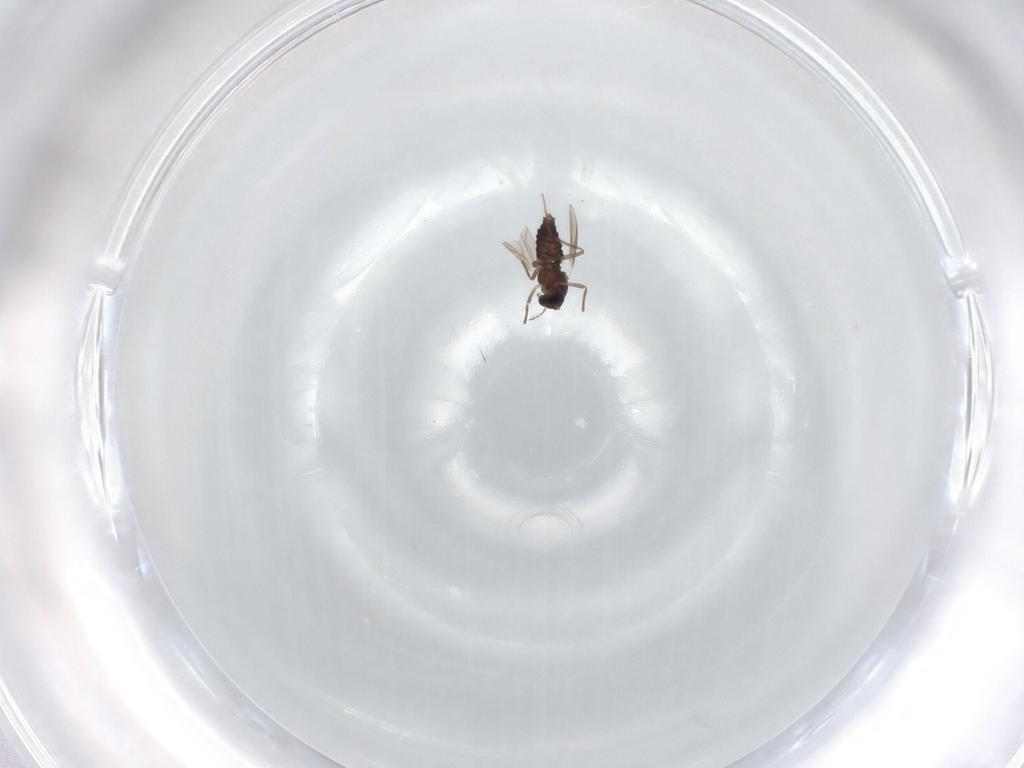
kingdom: Animalia
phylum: Arthropoda
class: Insecta
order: Diptera
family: Chironomidae
